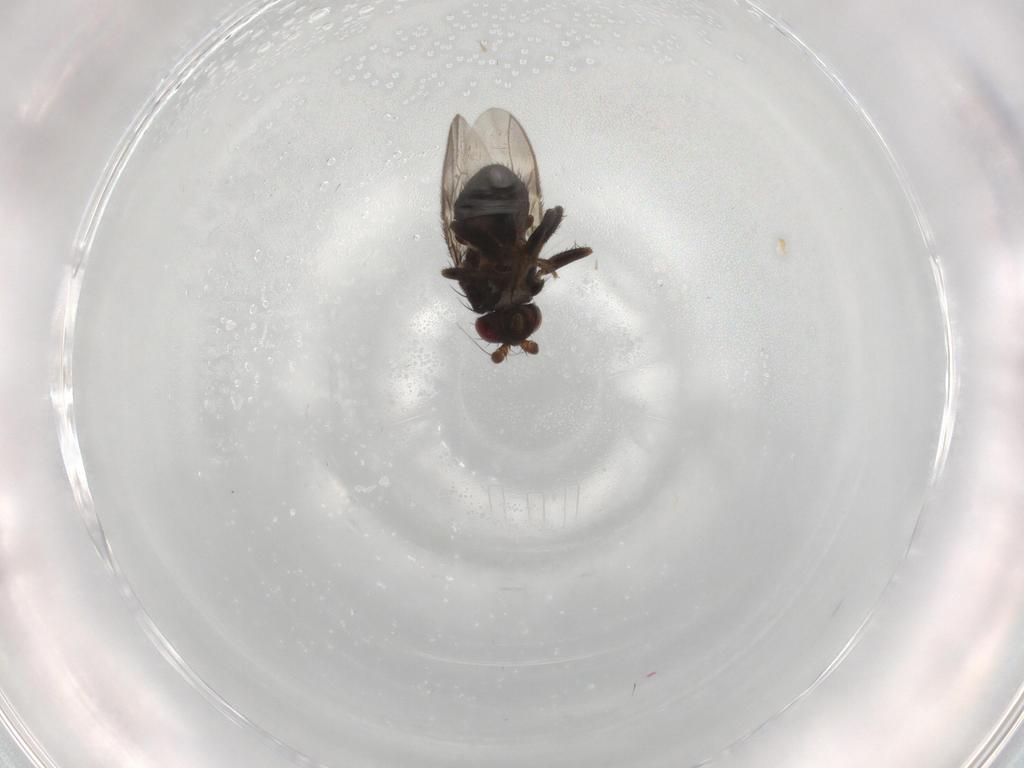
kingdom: Animalia
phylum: Arthropoda
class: Insecta
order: Diptera
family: Sphaeroceridae
